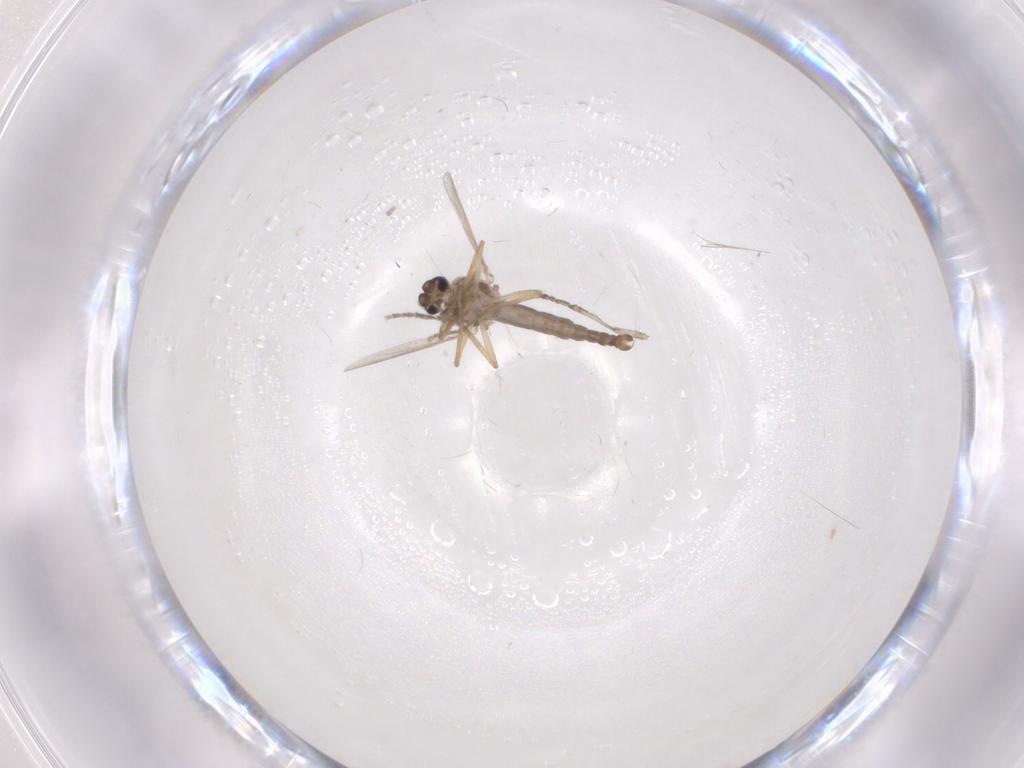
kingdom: Animalia
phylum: Arthropoda
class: Insecta
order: Diptera
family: Ceratopogonidae
